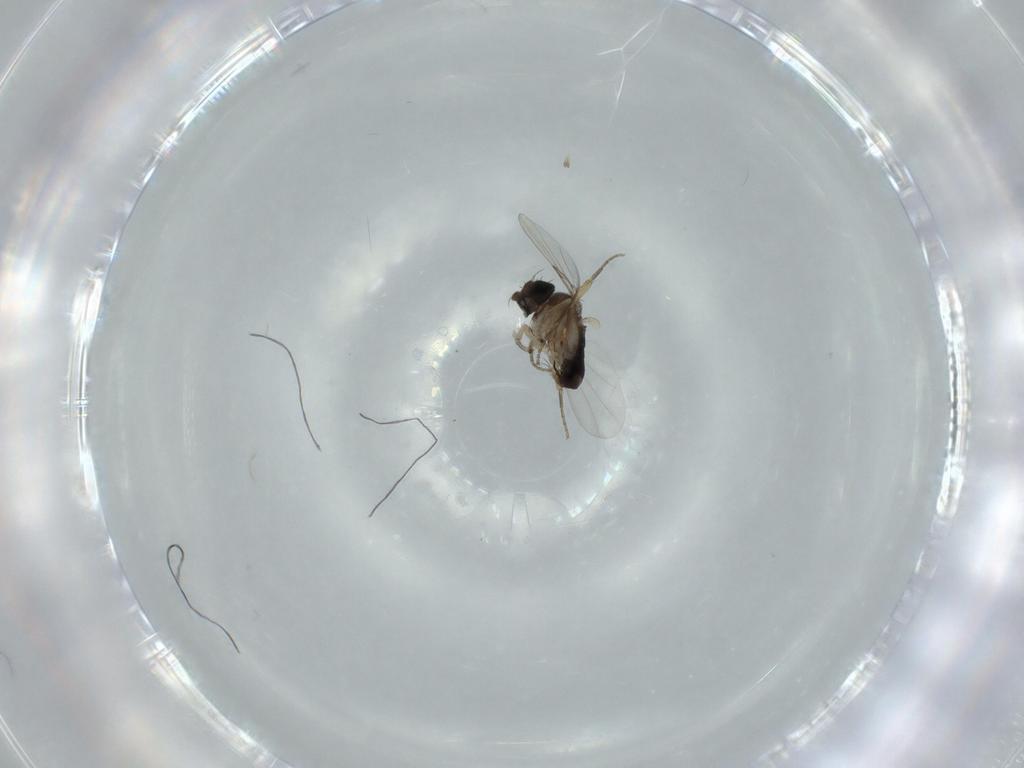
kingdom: Animalia
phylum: Arthropoda
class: Insecta
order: Diptera
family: Phoridae
